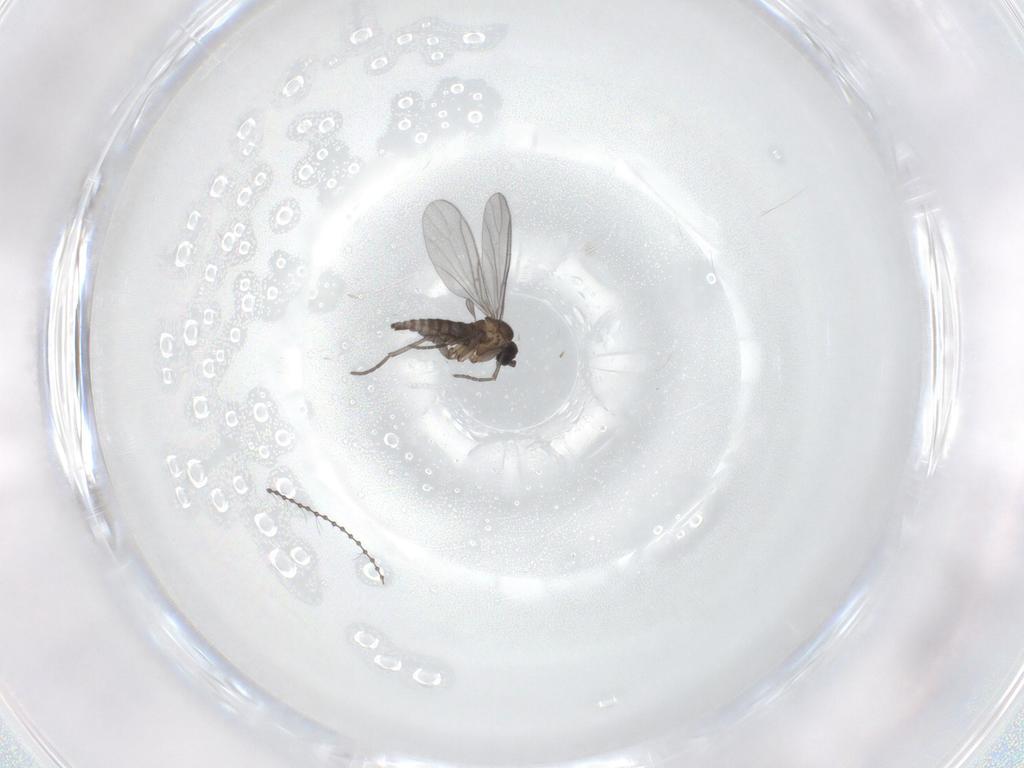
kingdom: Animalia
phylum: Arthropoda
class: Insecta
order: Diptera
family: Cecidomyiidae
